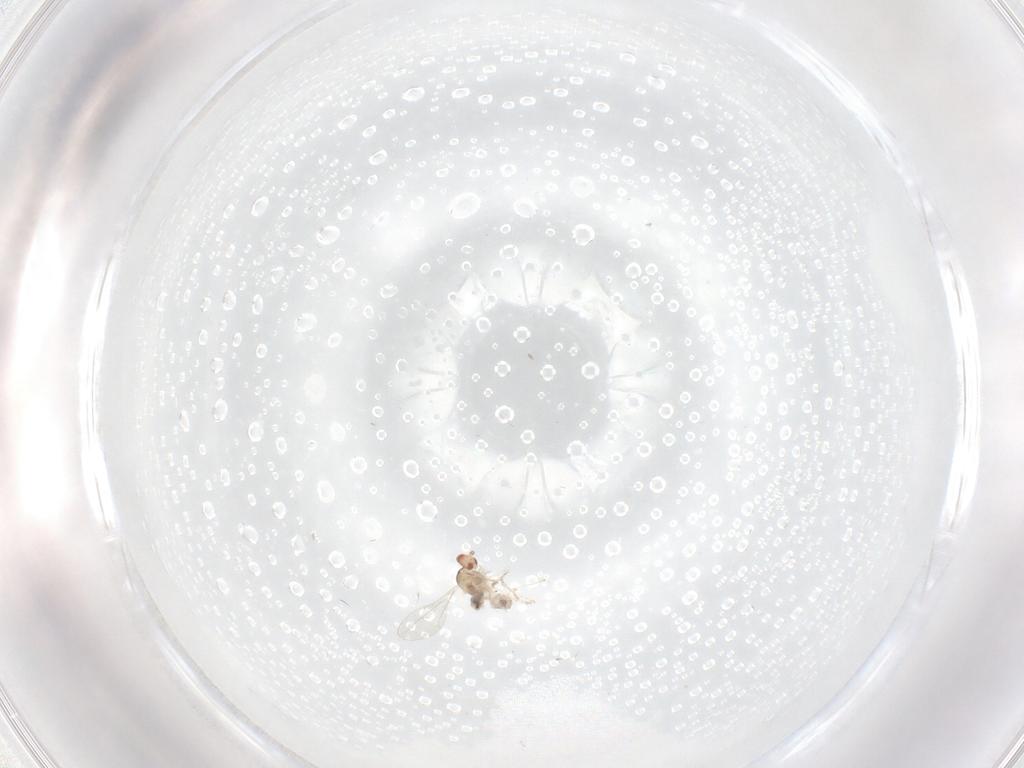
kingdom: Animalia
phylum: Arthropoda
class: Insecta
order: Diptera
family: Cecidomyiidae
